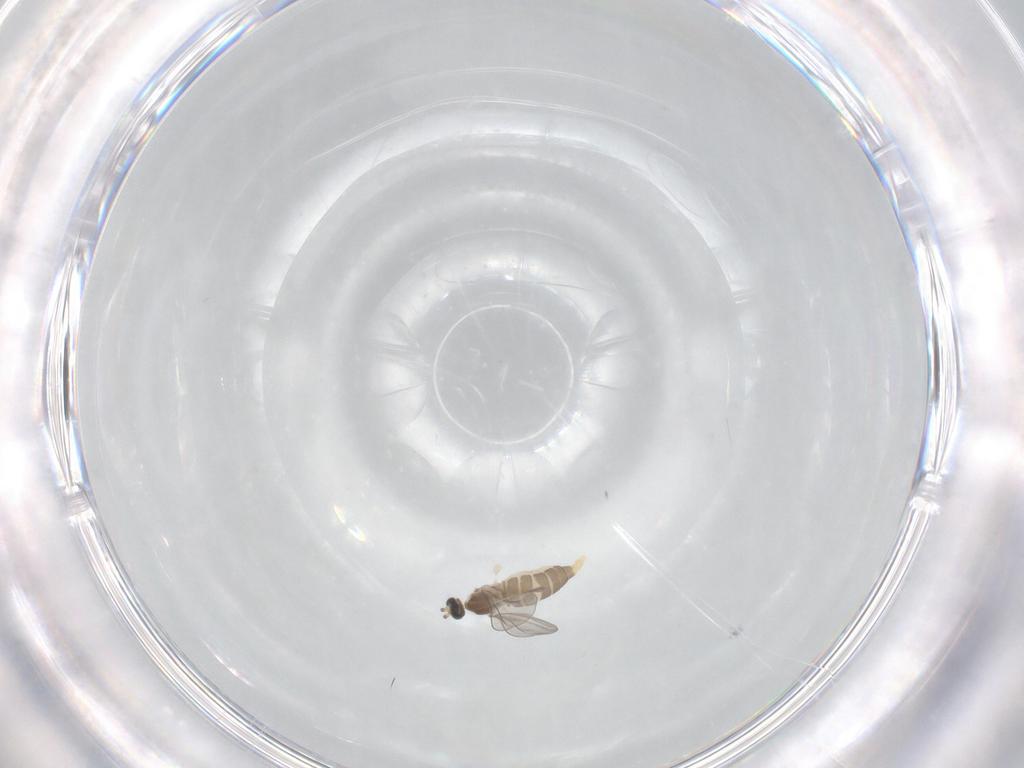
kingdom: Animalia
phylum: Arthropoda
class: Insecta
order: Diptera
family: Cecidomyiidae
